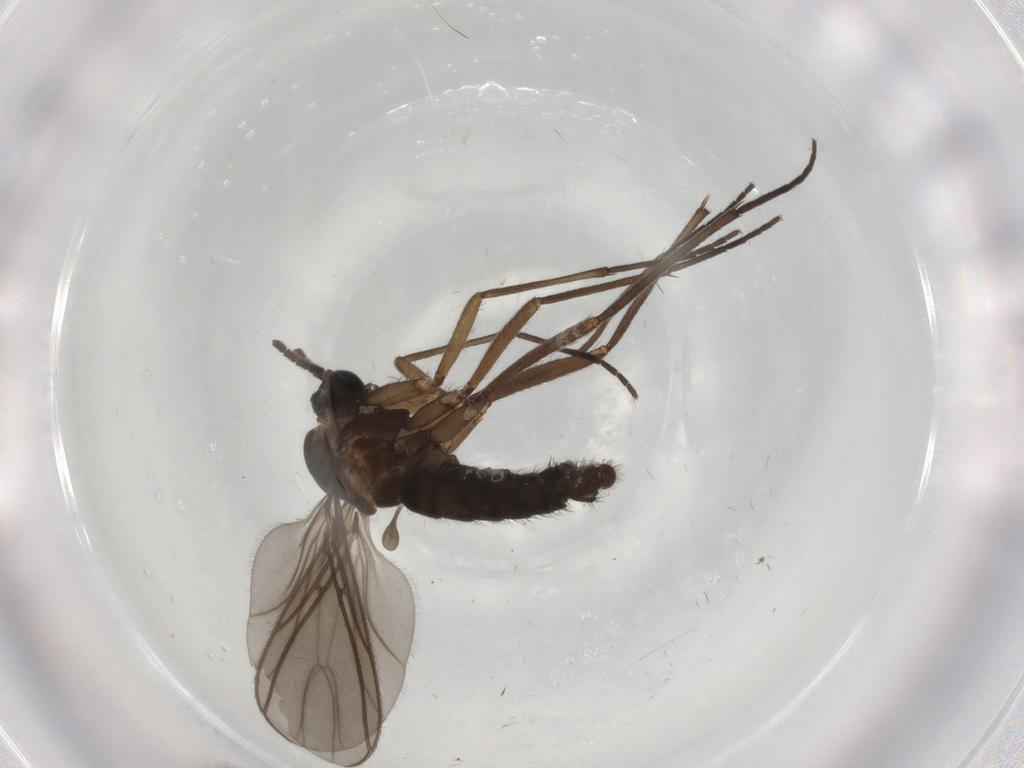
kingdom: Animalia
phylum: Arthropoda
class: Insecta
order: Diptera
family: Sciaridae
